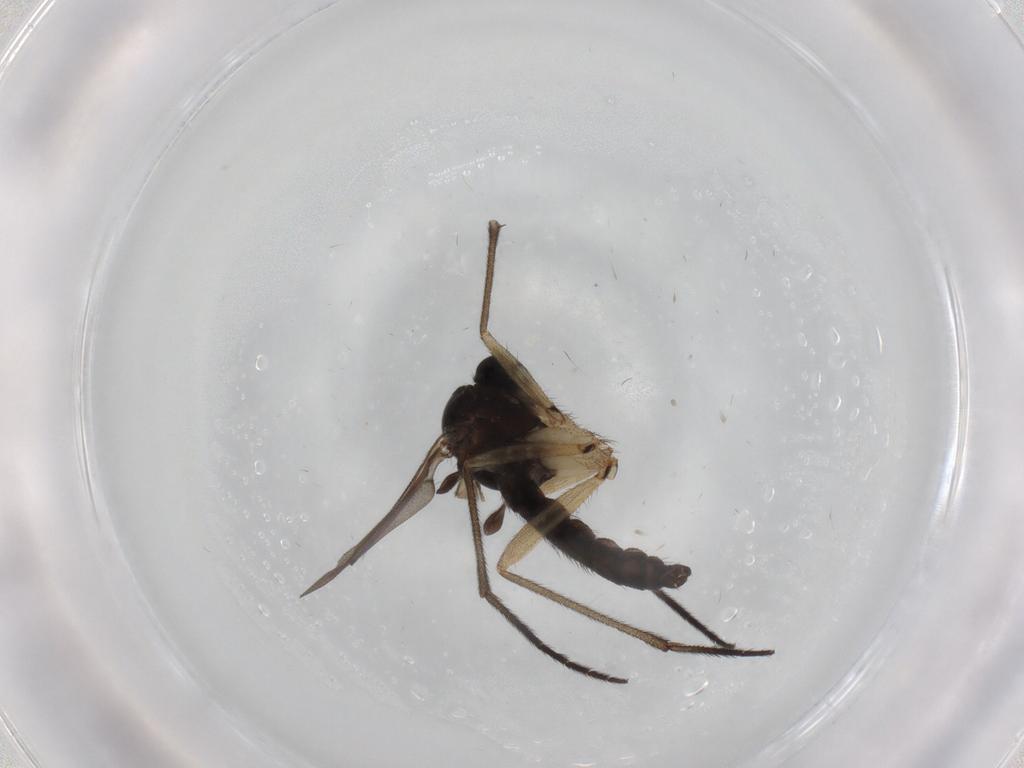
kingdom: Animalia
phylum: Arthropoda
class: Insecta
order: Diptera
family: Sciaridae
